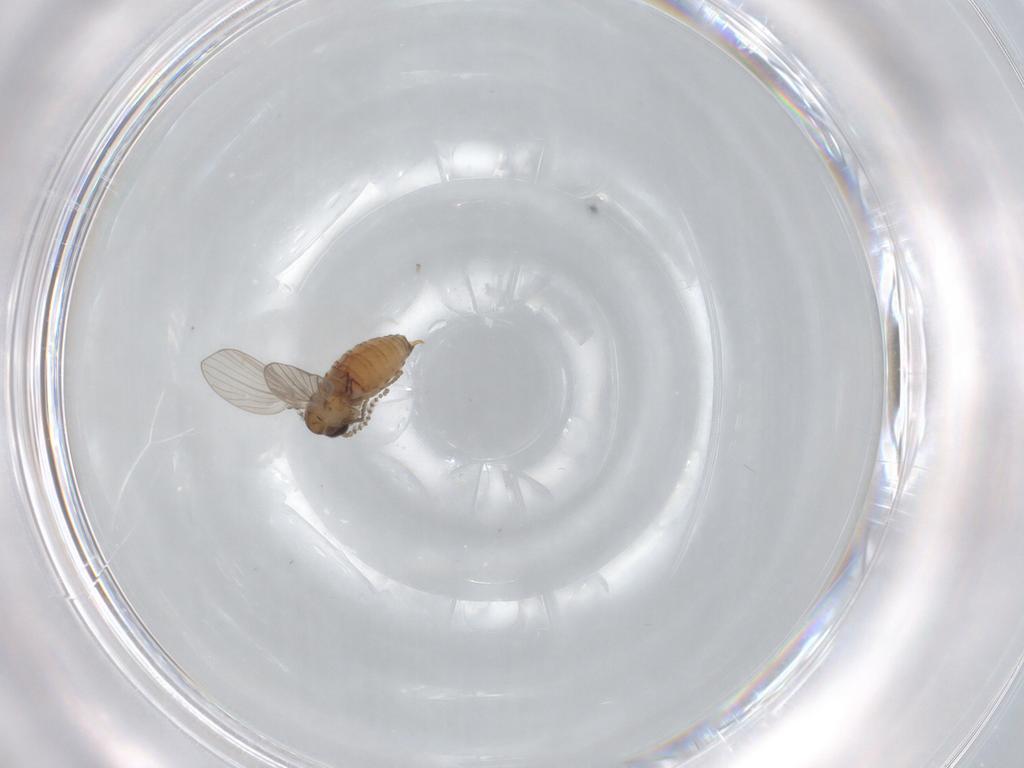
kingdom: Animalia
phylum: Arthropoda
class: Insecta
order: Diptera
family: Psychodidae
